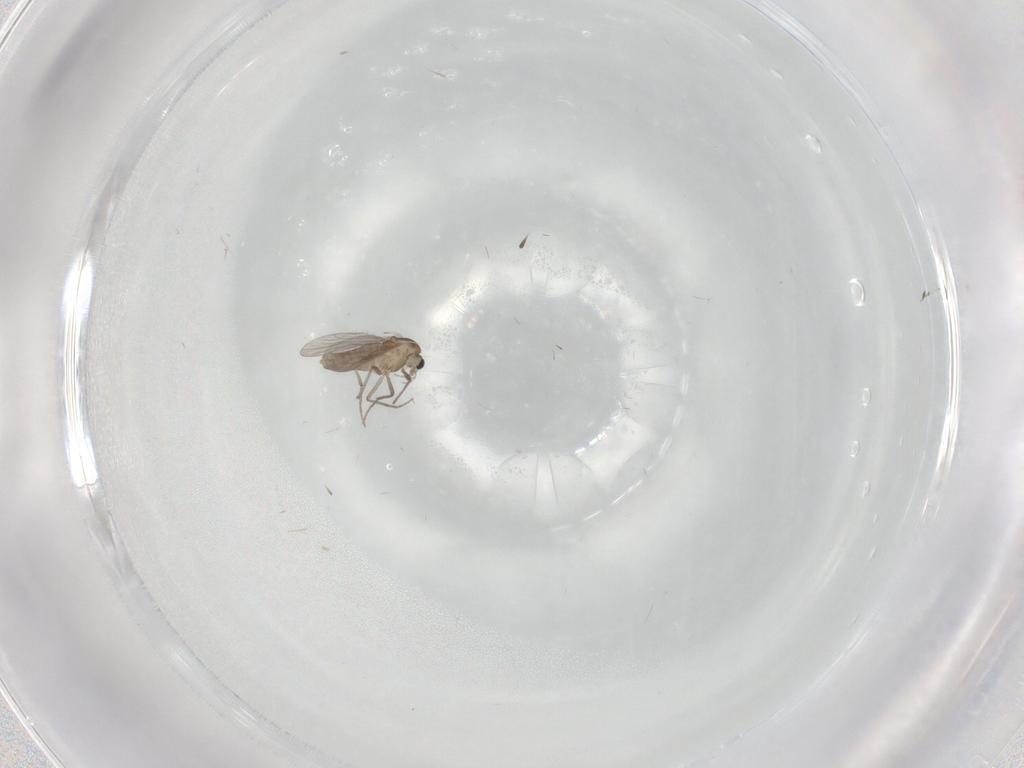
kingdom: Animalia
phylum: Arthropoda
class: Insecta
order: Diptera
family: Chironomidae
